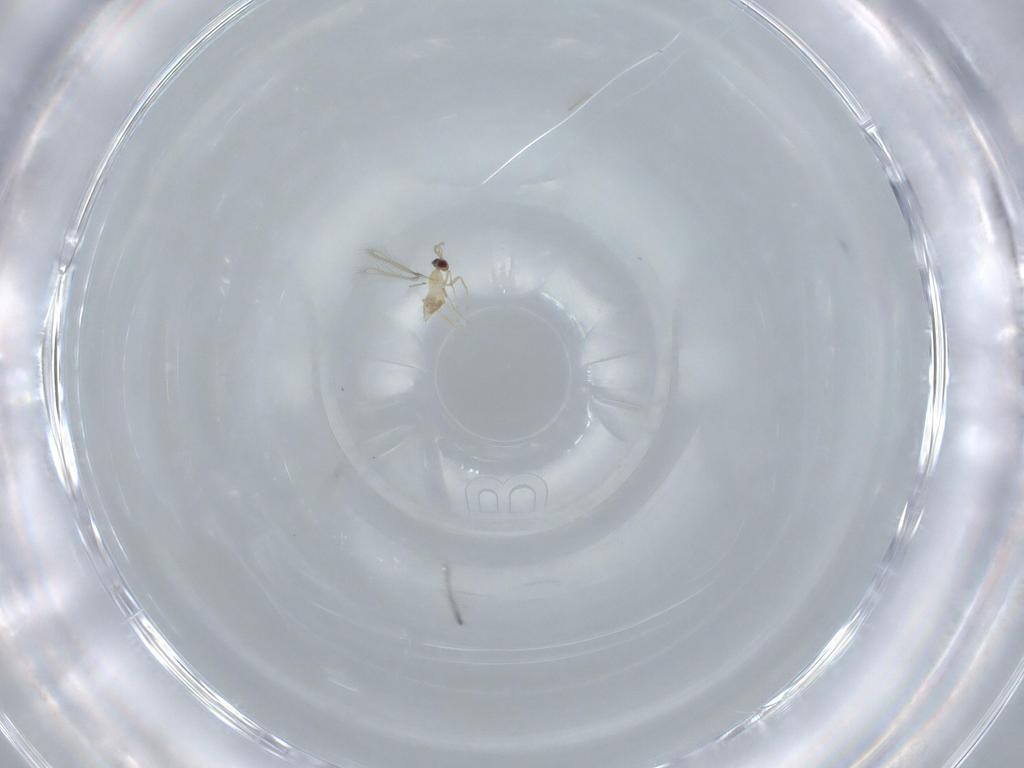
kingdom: Animalia
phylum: Arthropoda
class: Insecta
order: Hymenoptera
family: Mymaridae
